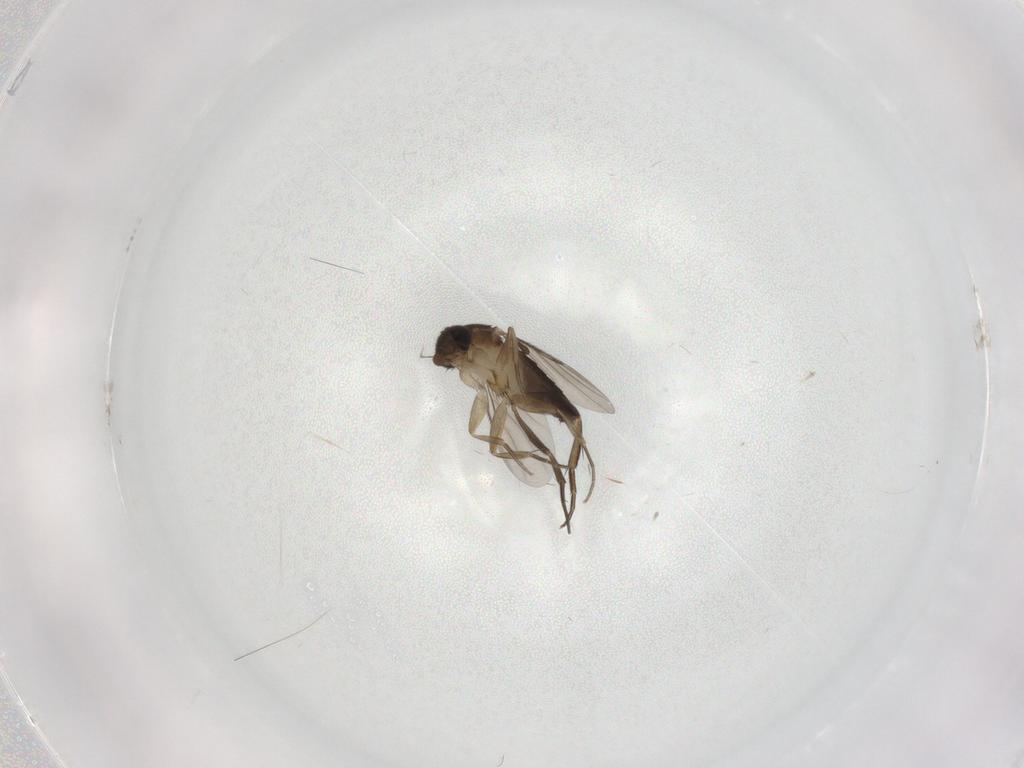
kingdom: Animalia
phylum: Arthropoda
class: Insecta
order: Diptera
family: Phoridae
